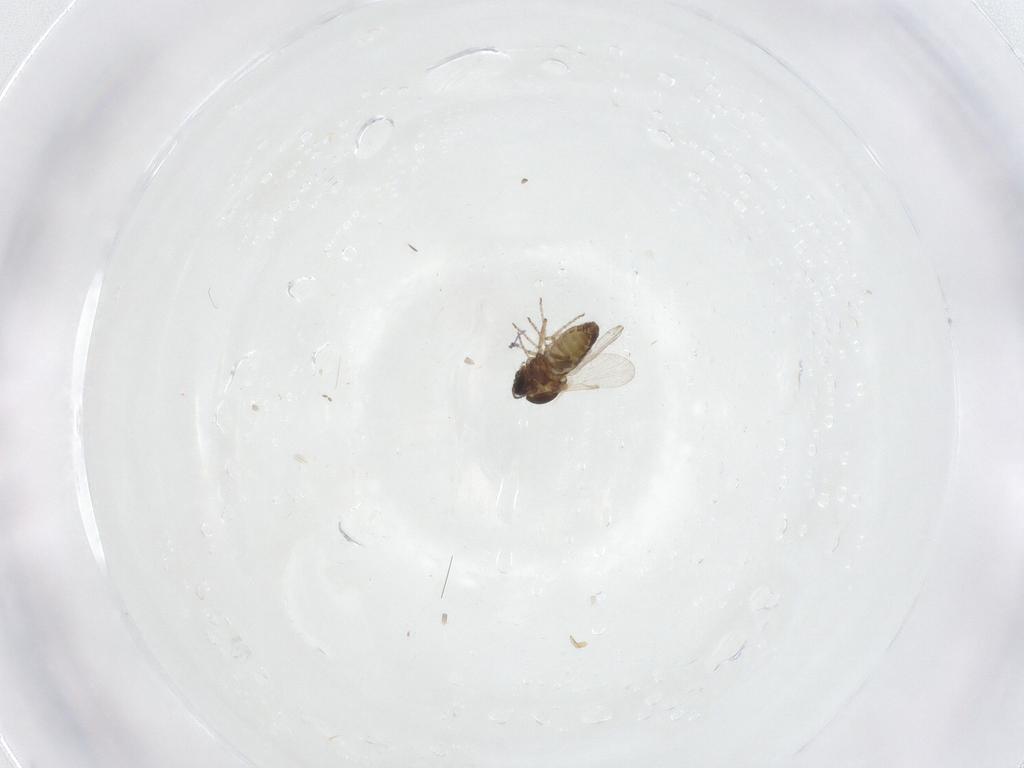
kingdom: Animalia
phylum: Arthropoda
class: Insecta
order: Diptera
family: Ceratopogonidae
